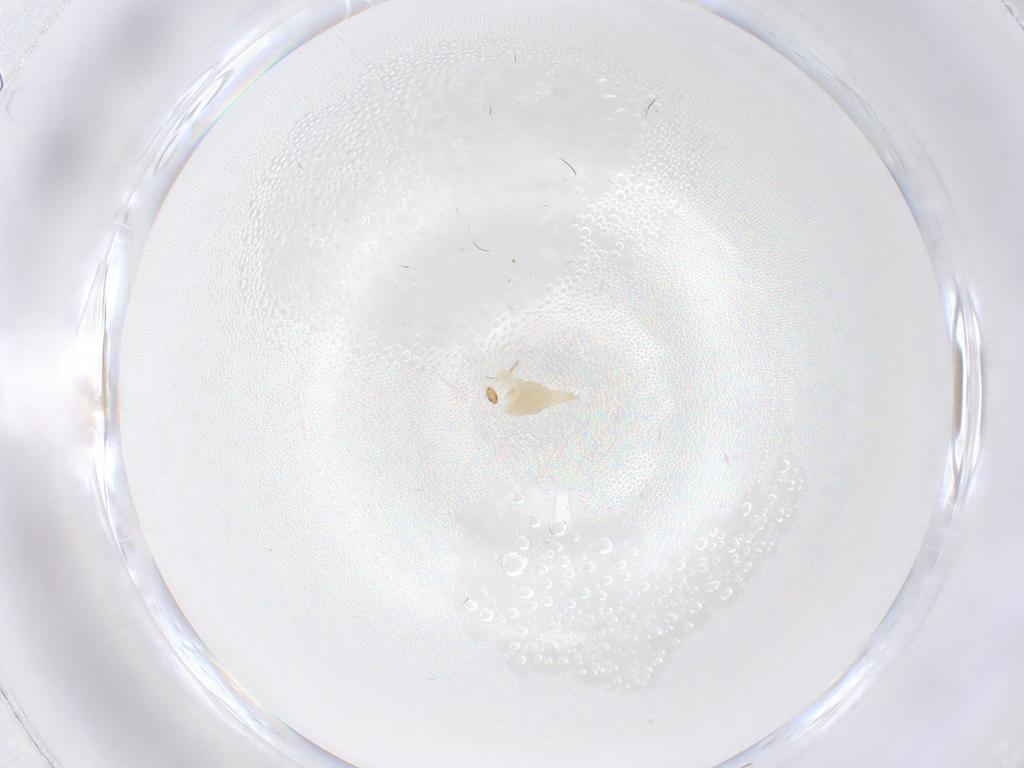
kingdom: Animalia
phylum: Arthropoda
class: Insecta
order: Diptera
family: Cecidomyiidae
